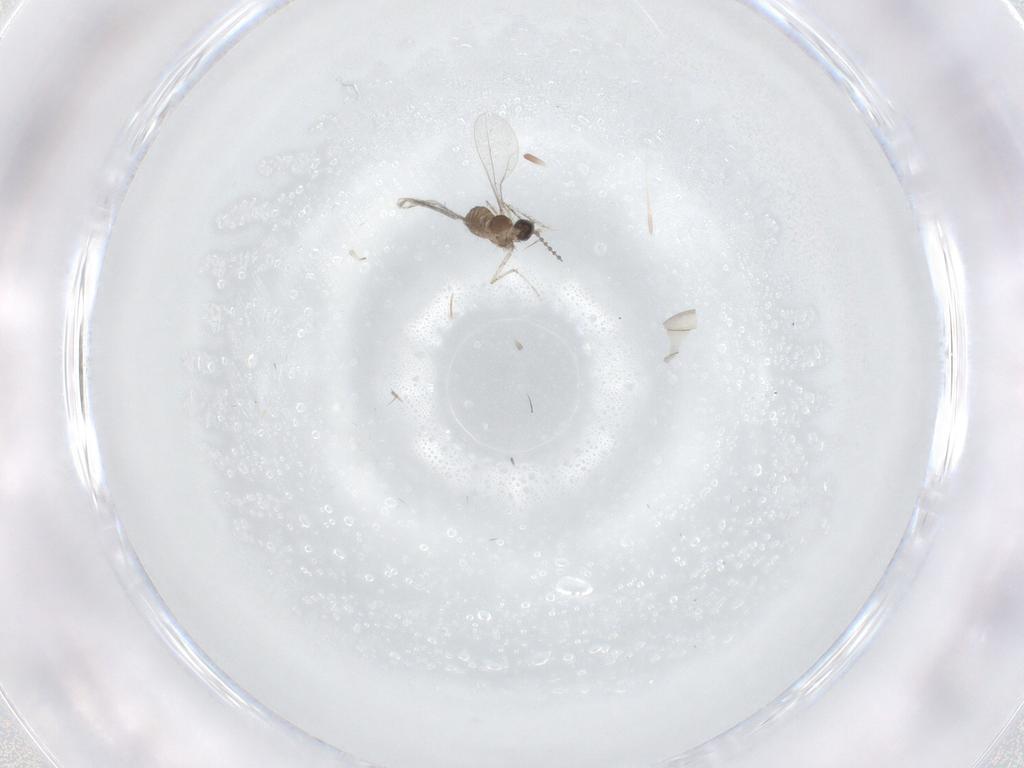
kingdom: Animalia
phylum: Arthropoda
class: Insecta
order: Diptera
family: Cecidomyiidae
